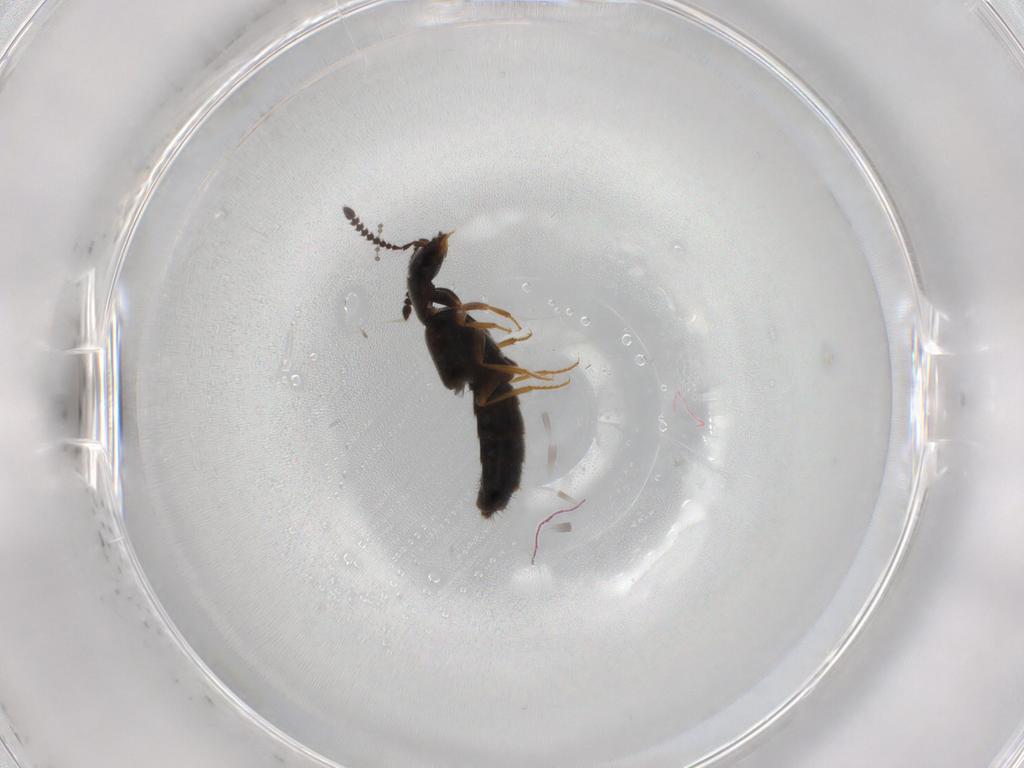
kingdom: Animalia
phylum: Arthropoda
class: Insecta
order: Coleoptera
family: Staphylinidae
